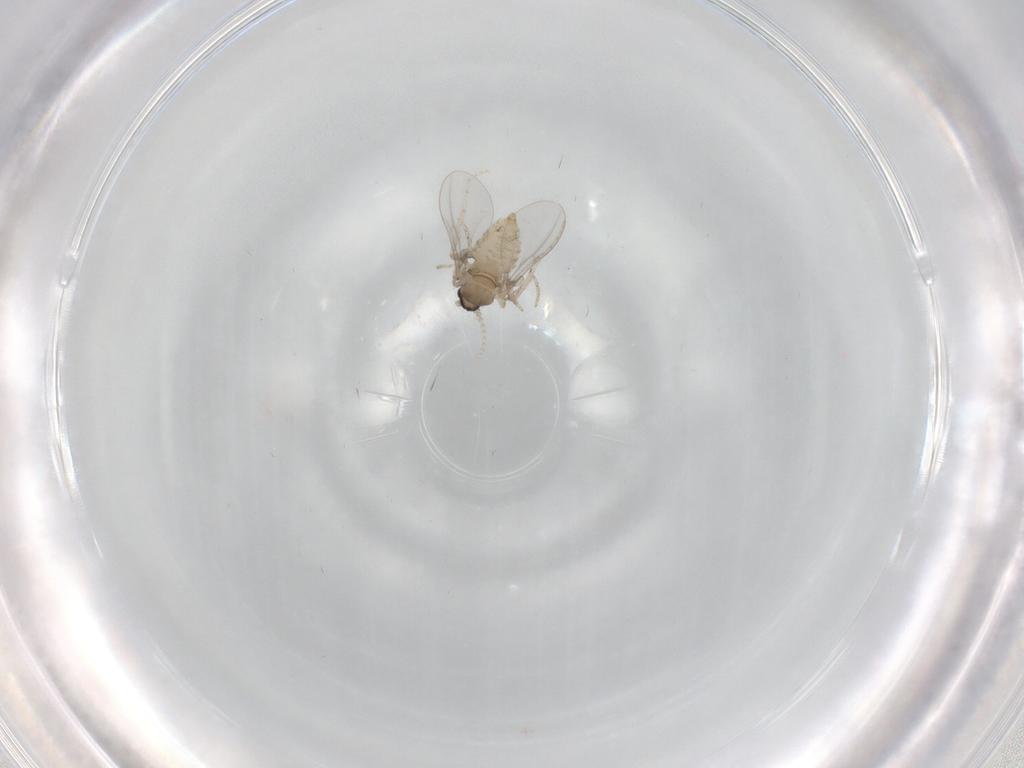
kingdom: Animalia
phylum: Arthropoda
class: Insecta
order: Diptera
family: Cecidomyiidae
